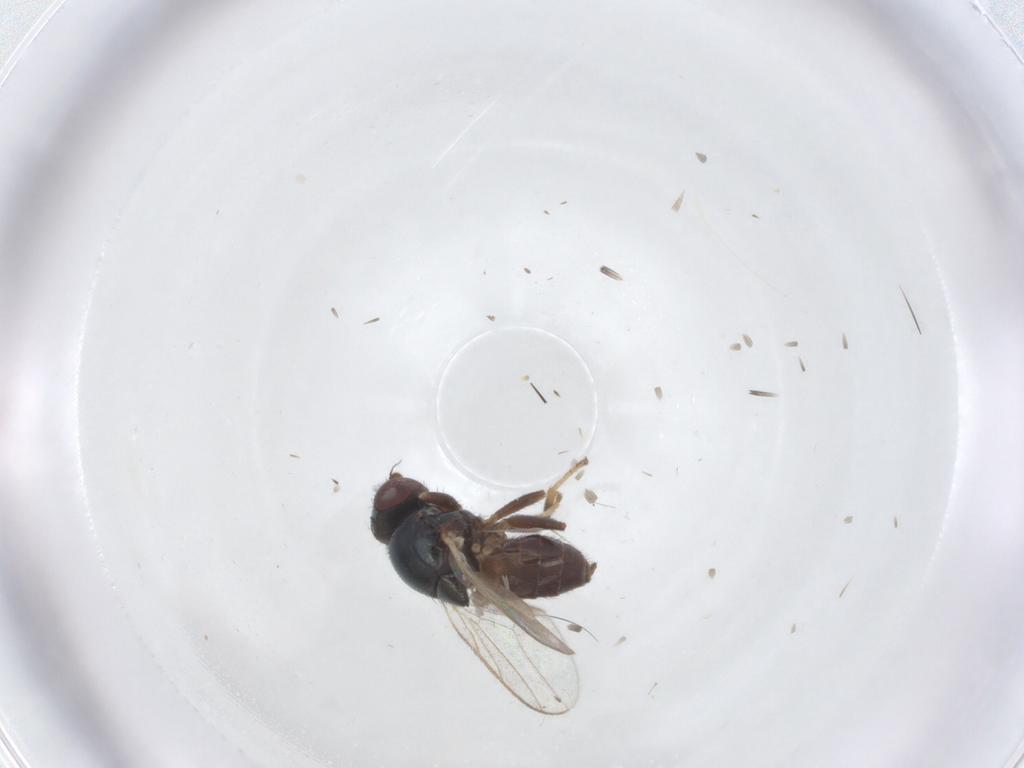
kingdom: Animalia
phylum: Arthropoda
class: Insecta
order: Diptera
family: Chloropidae
